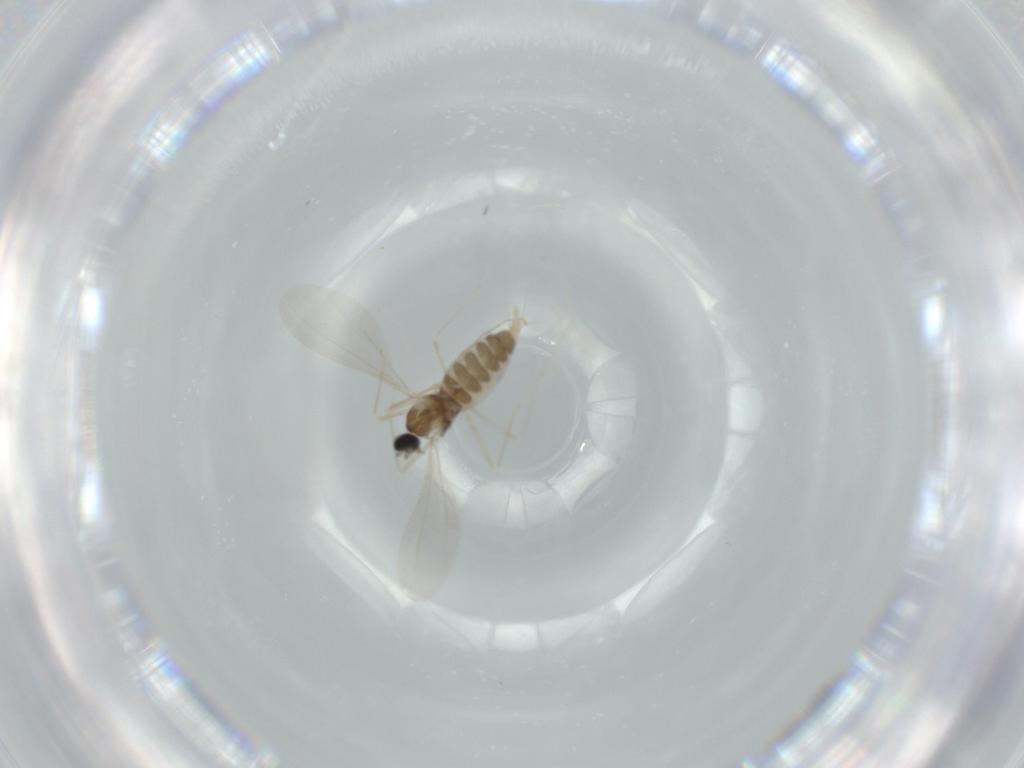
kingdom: Animalia
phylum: Arthropoda
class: Insecta
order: Diptera
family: Cecidomyiidae
